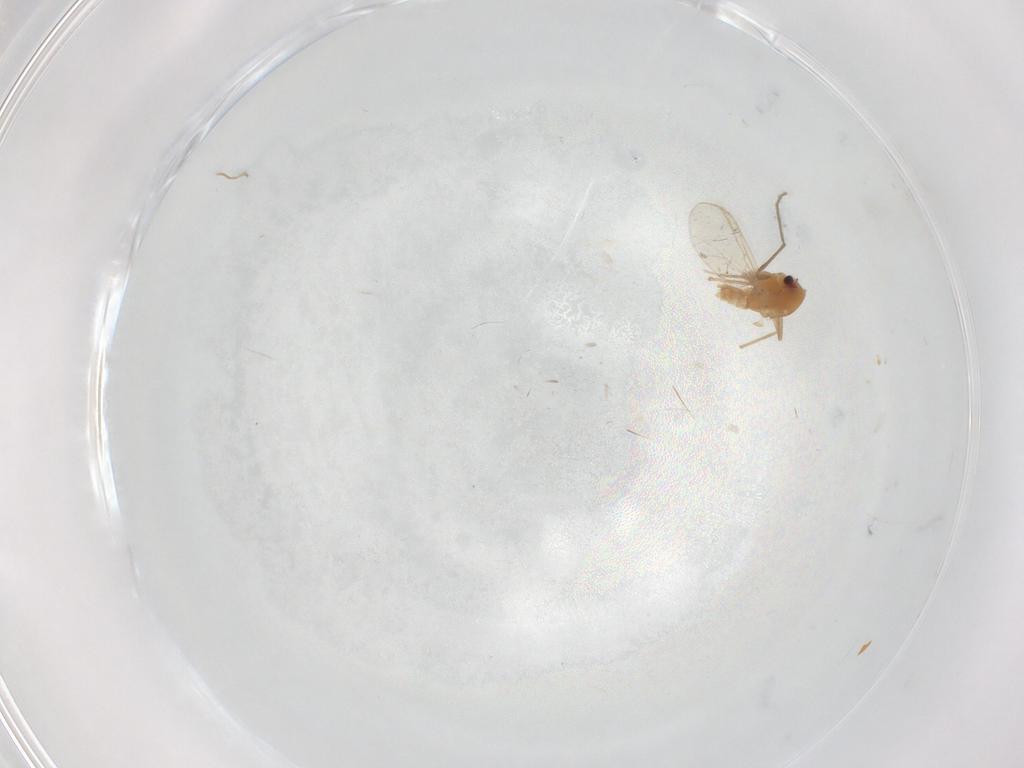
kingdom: Animalia
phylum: Arthropoda
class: Insecta
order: Diptera
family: Chironomidae
